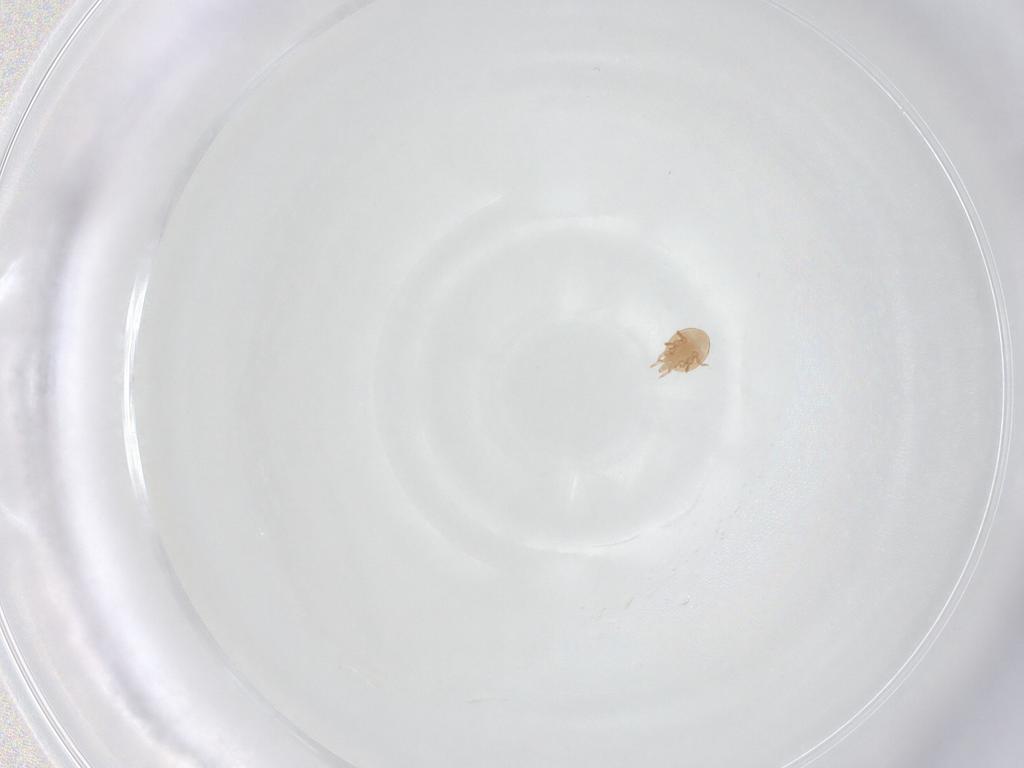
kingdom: Animalia
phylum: Arthropoda
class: Arachnida
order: Mesostigmata
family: Trematuridae
